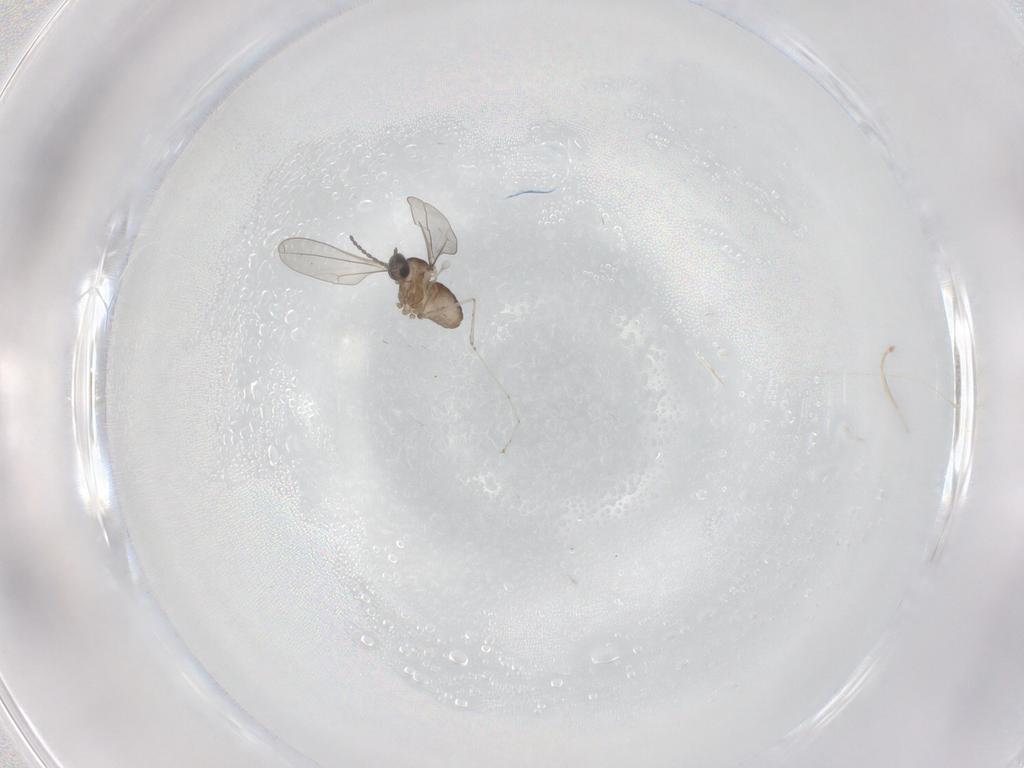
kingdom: Animalia
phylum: Arthropoda
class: Insecta
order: Diptera
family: Cecidomyiidae
